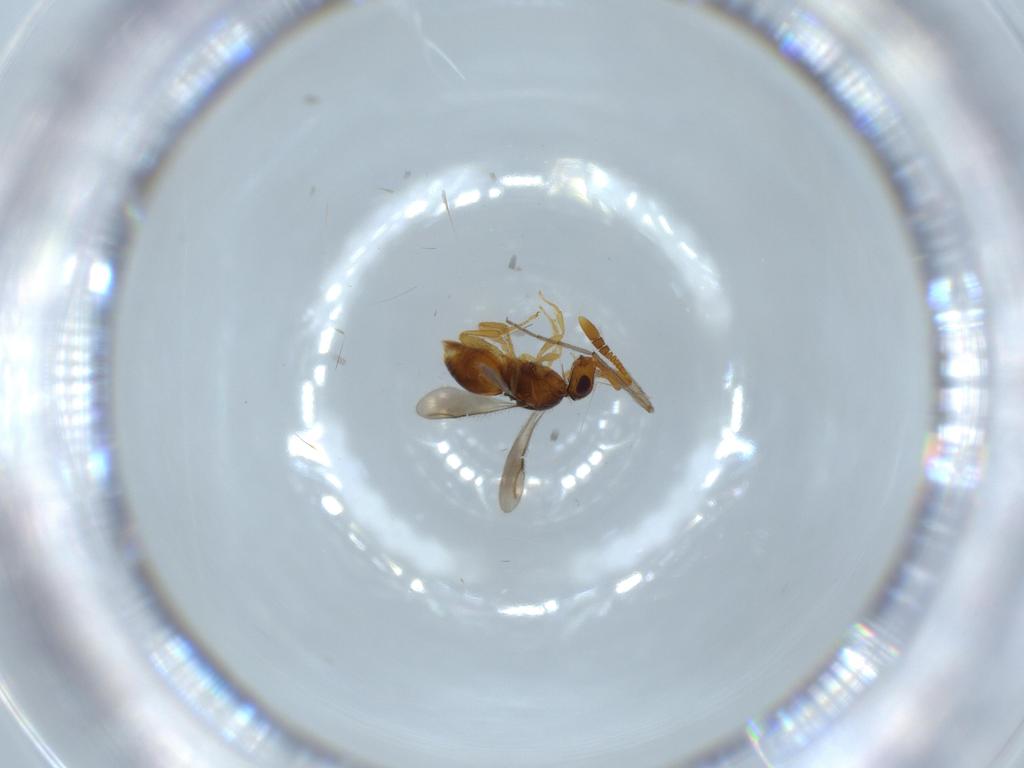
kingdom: Animalia
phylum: Arthropoda
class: Insecta
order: Hymenoptera
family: Ceraphronidae
